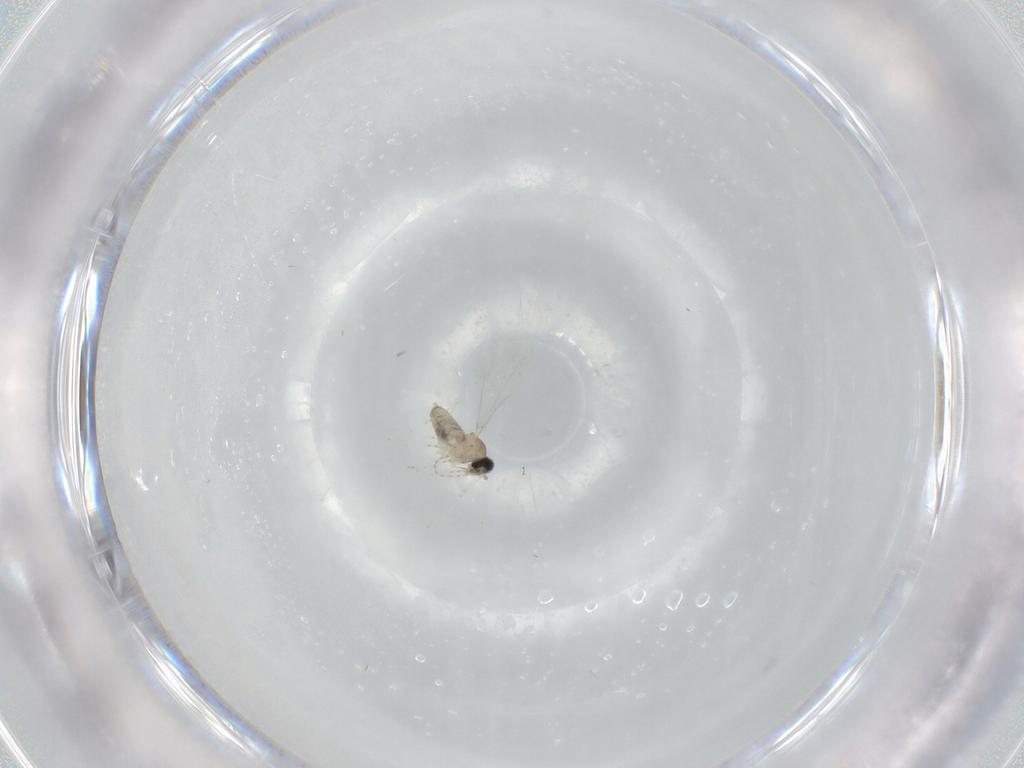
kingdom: Animalia
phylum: Arthropoda
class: Insecta
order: Diptera
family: Cecidomyiidae
